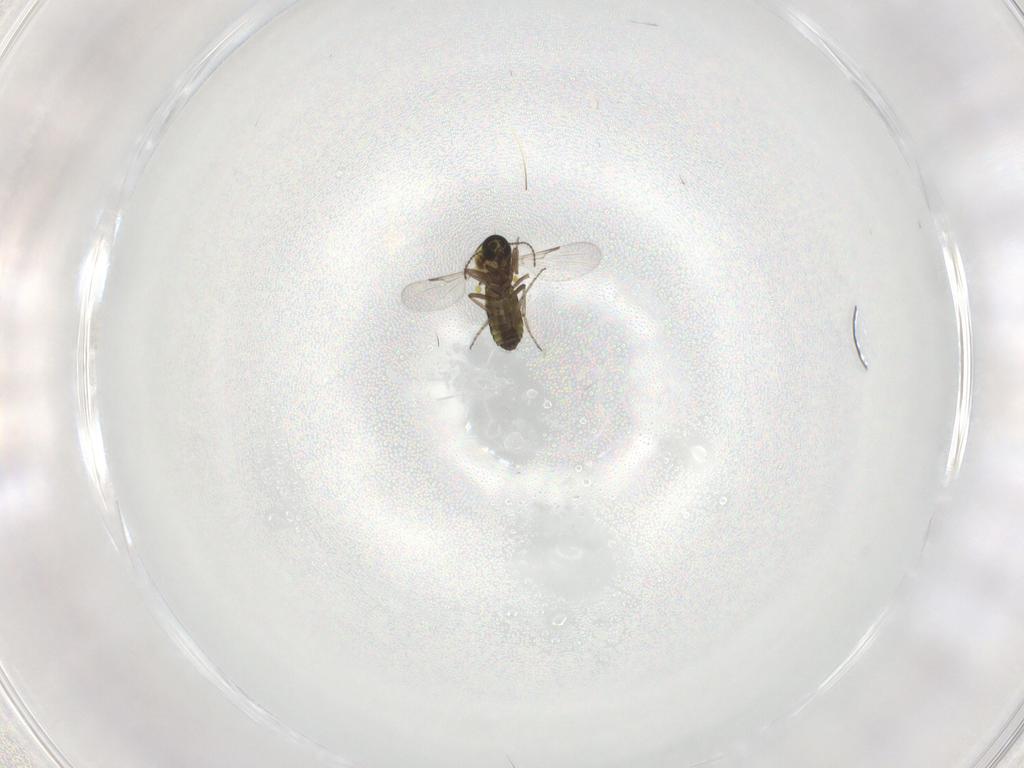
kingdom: Animalia
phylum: Arthropoda
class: Insecta
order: Diptera
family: Ceratopogonidae
